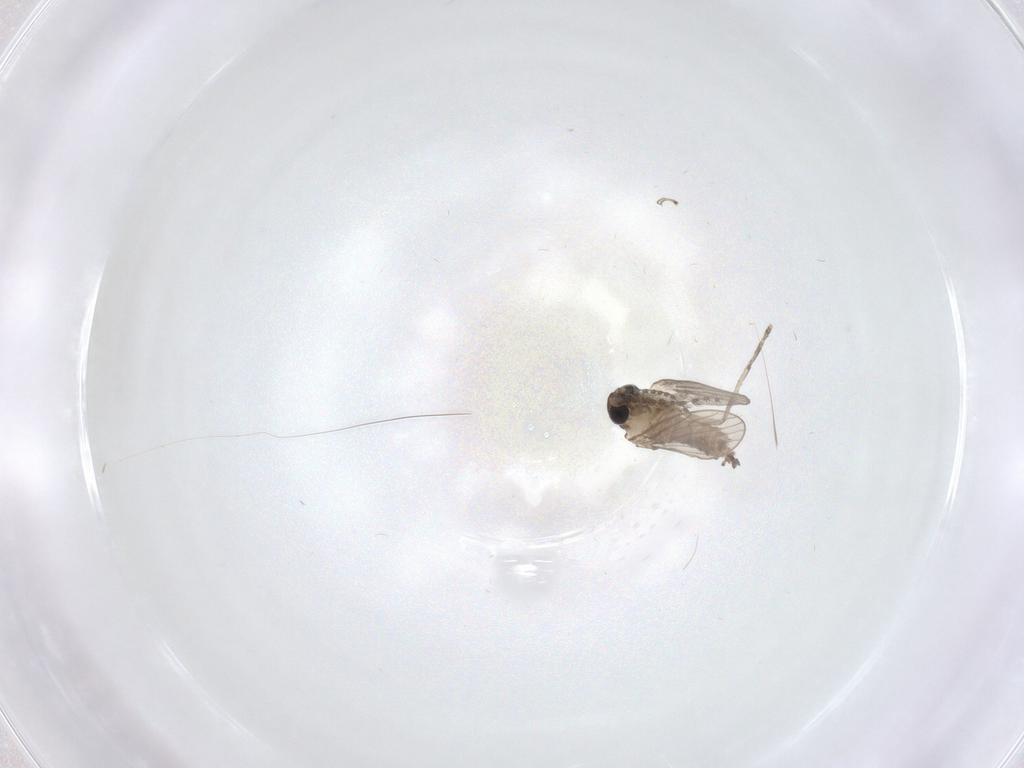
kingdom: Animalia
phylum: Arthropoda
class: Insecta
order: Diptera
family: Psychodidae
